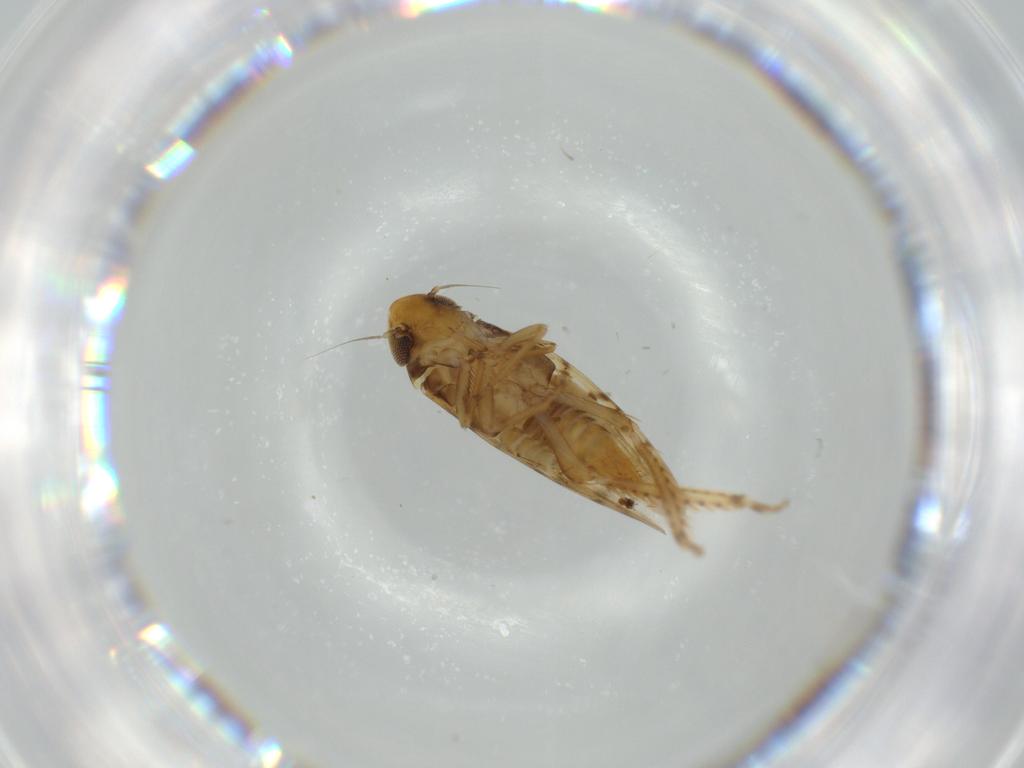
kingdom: Animalia
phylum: Arthropoda
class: Insecta
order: Hemiptera
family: Cicadellidae
